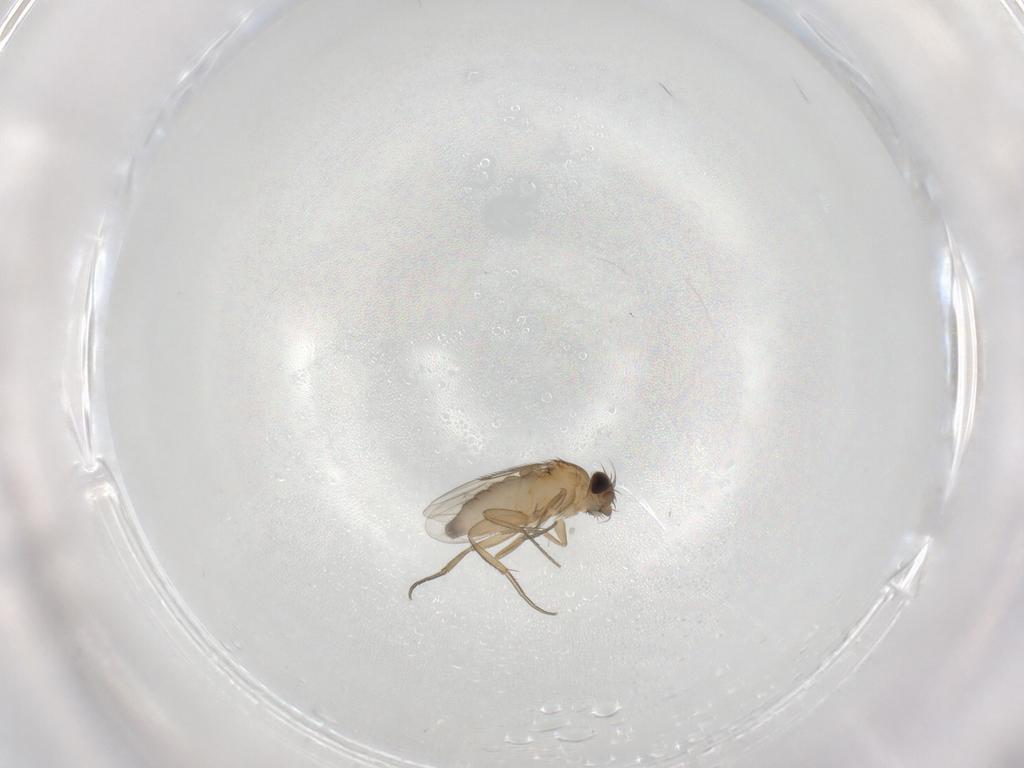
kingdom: Animalia
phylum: Arthropoda
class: Insecta
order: Diptera
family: Phoridae
